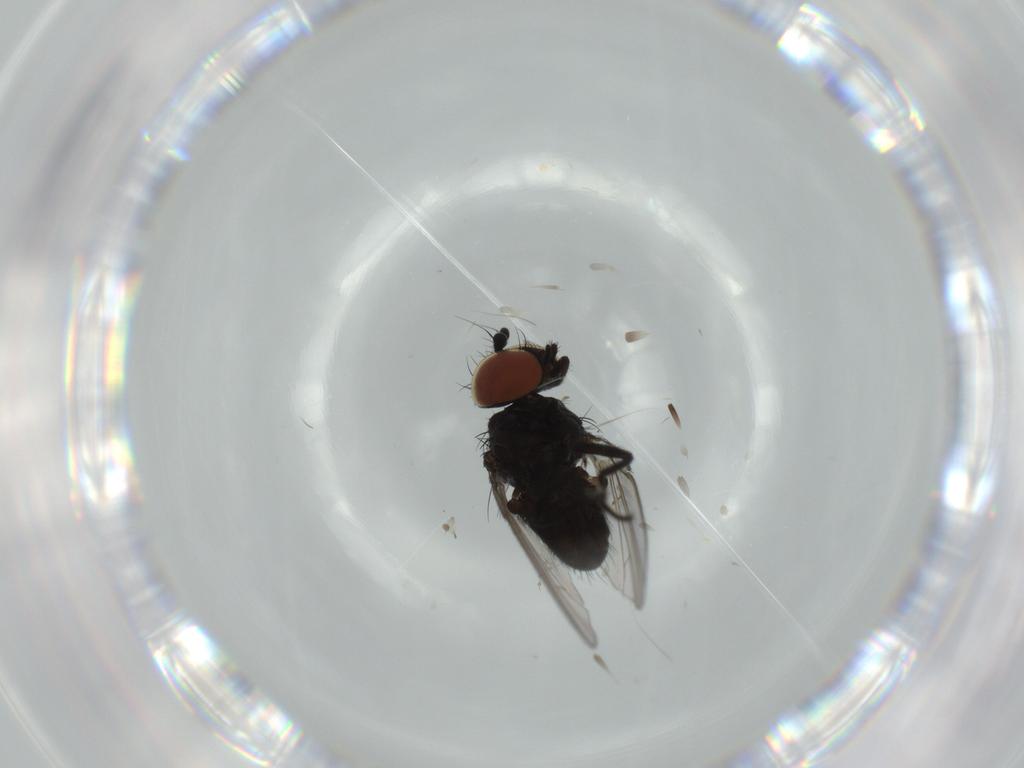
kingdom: Animalia
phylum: Arthropoda
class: Insecta
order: Diptera
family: Milichiidae
